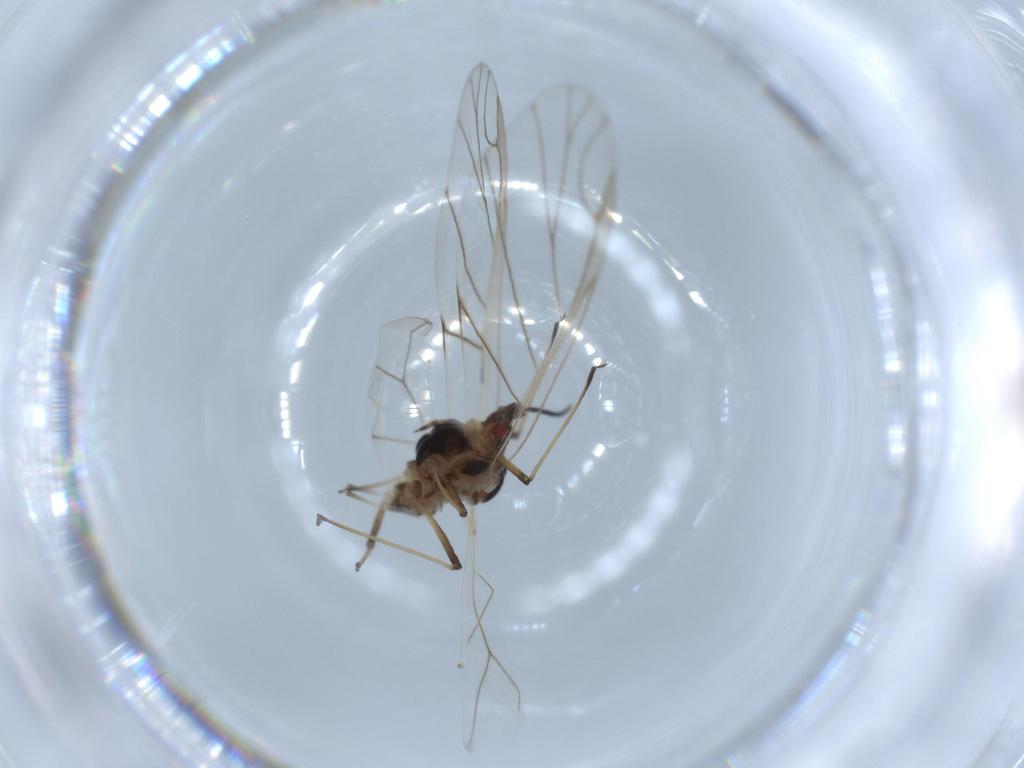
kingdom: Animalia
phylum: Arthropoda
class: Insecta
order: Hemiptera
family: Aphididae
